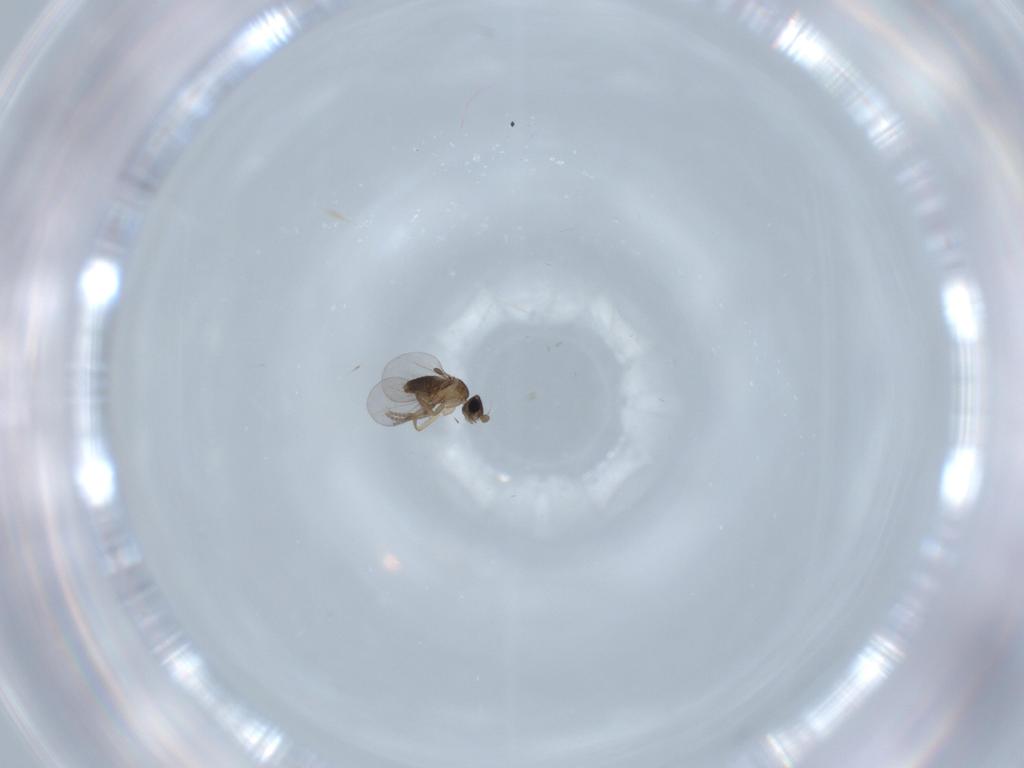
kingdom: Animalia
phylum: Arthropoda
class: Insecta
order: Diptera
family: Phoridae
